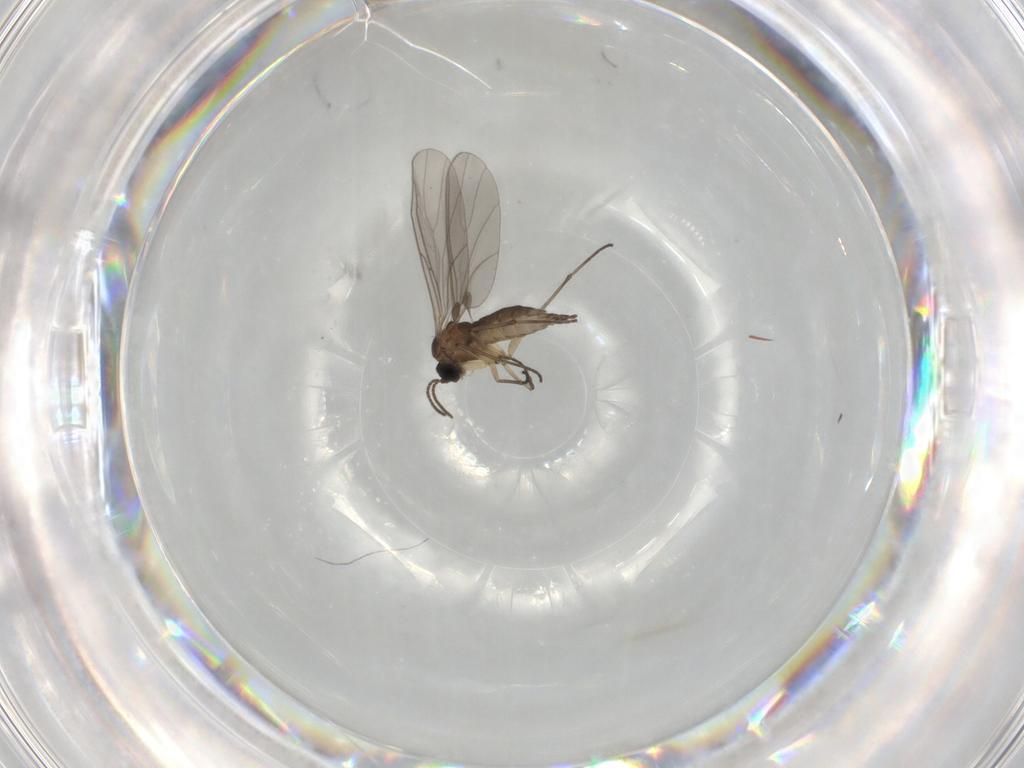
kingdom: Animalia
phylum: Arthropoda
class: Insecta
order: Diptera
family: Sciaridae
